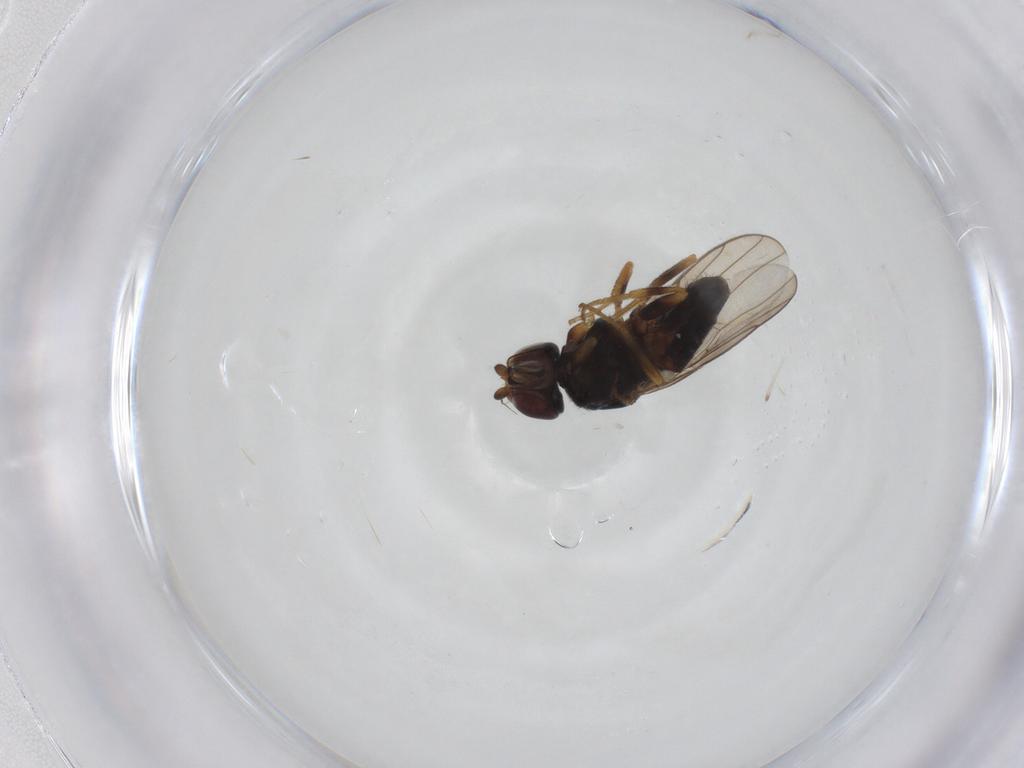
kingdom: Animalia
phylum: Arthropoda
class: Insecta
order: Diptera
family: Chloropidae
